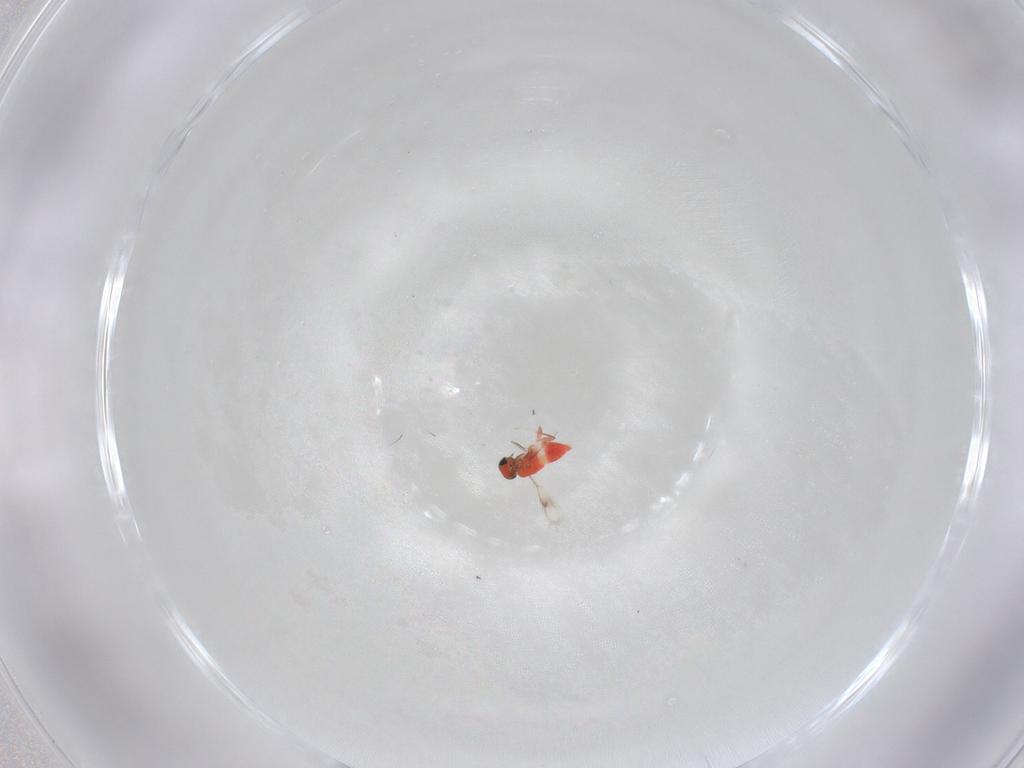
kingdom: Animalia
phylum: Arthropoda
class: Insecta
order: Hymenoptera
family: Trichogrammatidae
